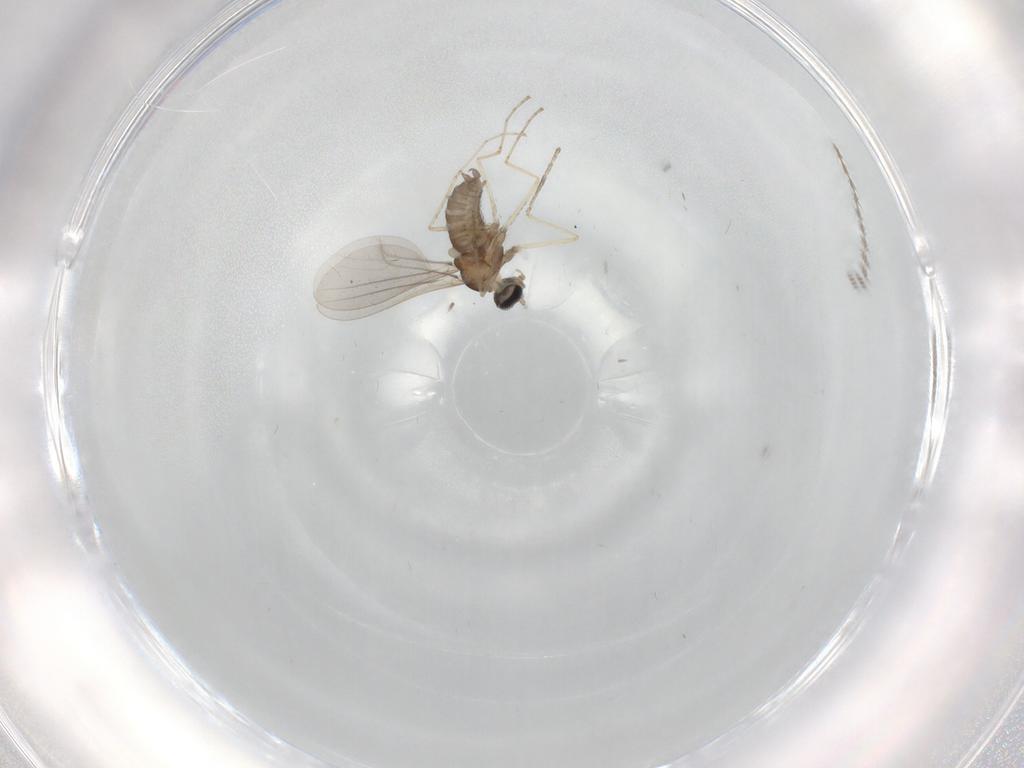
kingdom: Animalia
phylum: Arthropoda
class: Insecta
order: Diptera
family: Cecidomyiidae
